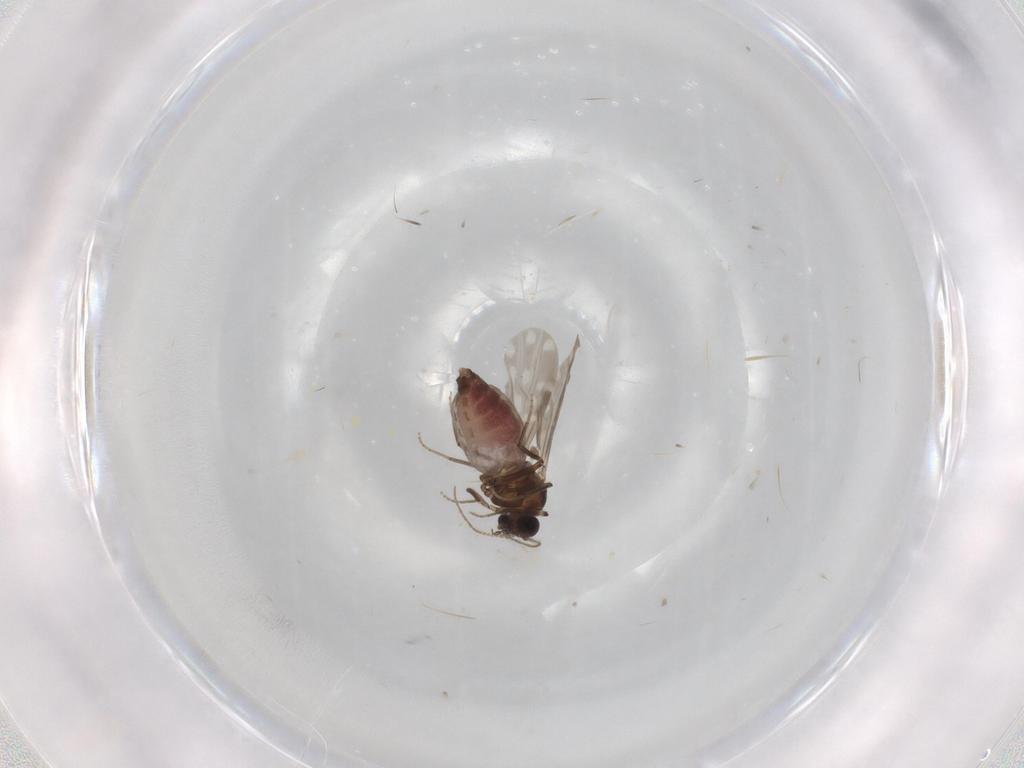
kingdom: Animalia
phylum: Arthropoda
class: Insecta
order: Diptera
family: Ceratopogonidae
